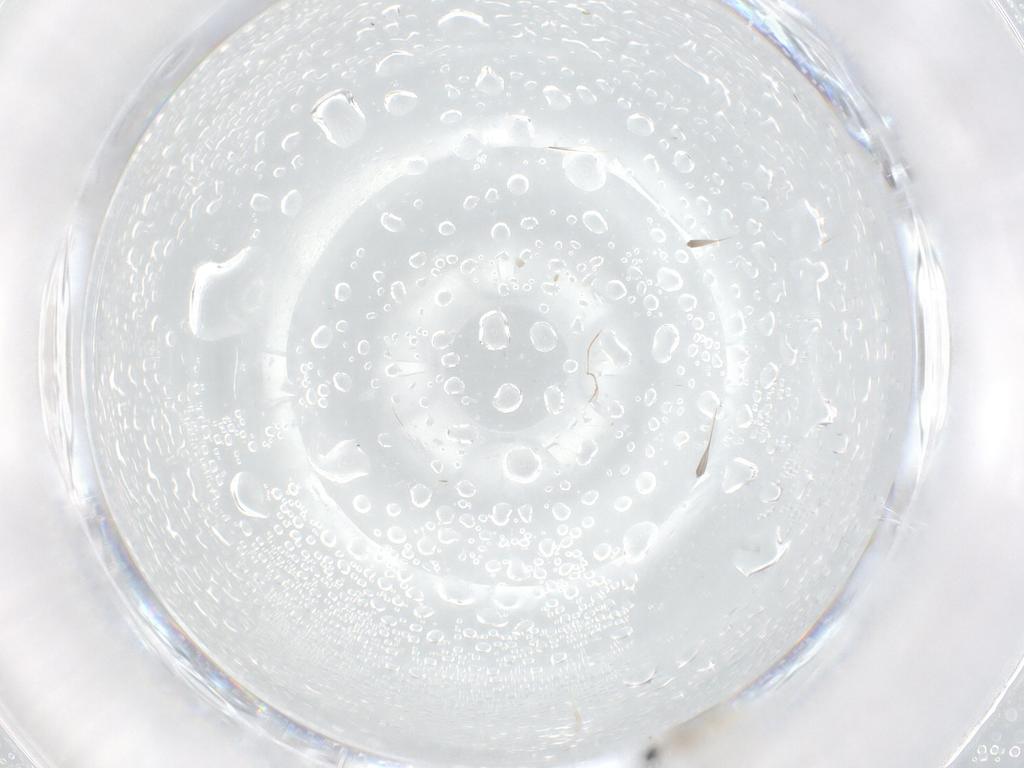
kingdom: Animalia
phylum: Arthropoda
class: Insecta
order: Diptera
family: Cecidomyiidae
